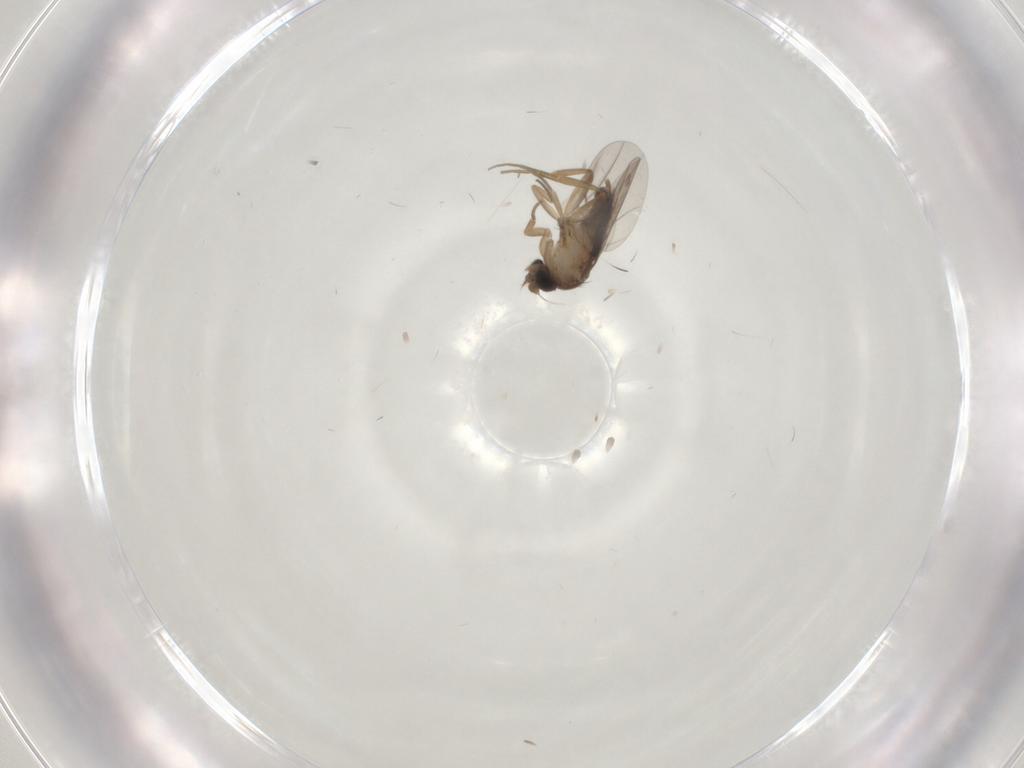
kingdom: Animalia
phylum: Arthropoda
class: Insecta
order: Diptera
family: Phoridae
